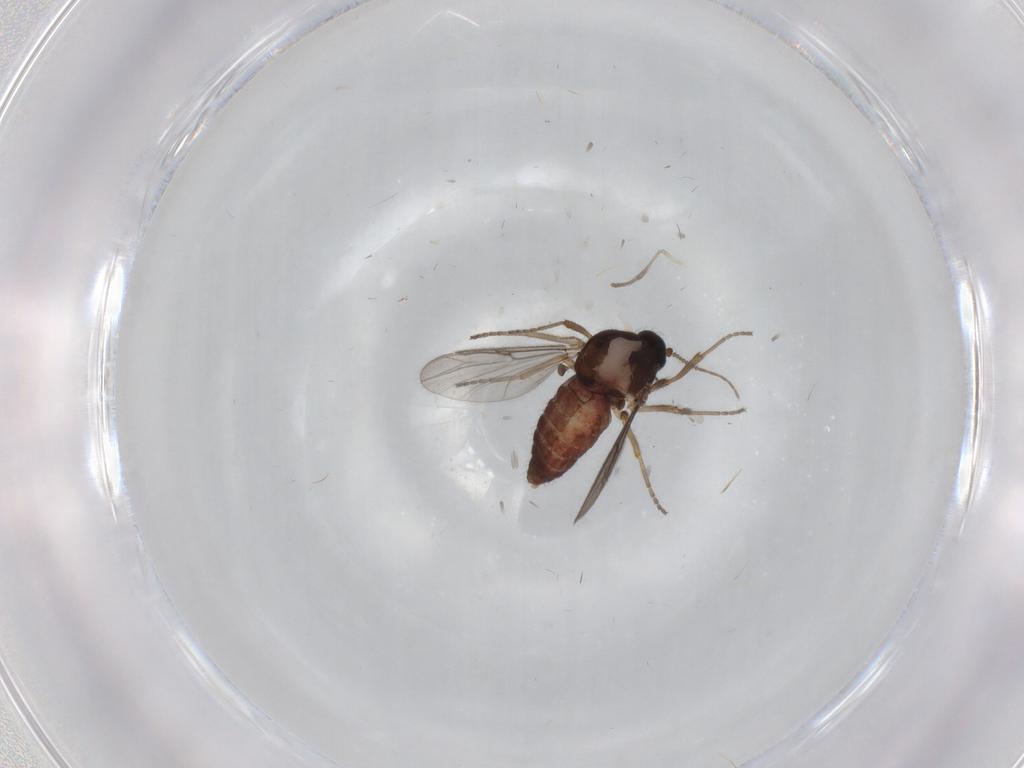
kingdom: Animalia
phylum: Arthropoda
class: Insecta
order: Diptera
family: Ceratopogonidae
